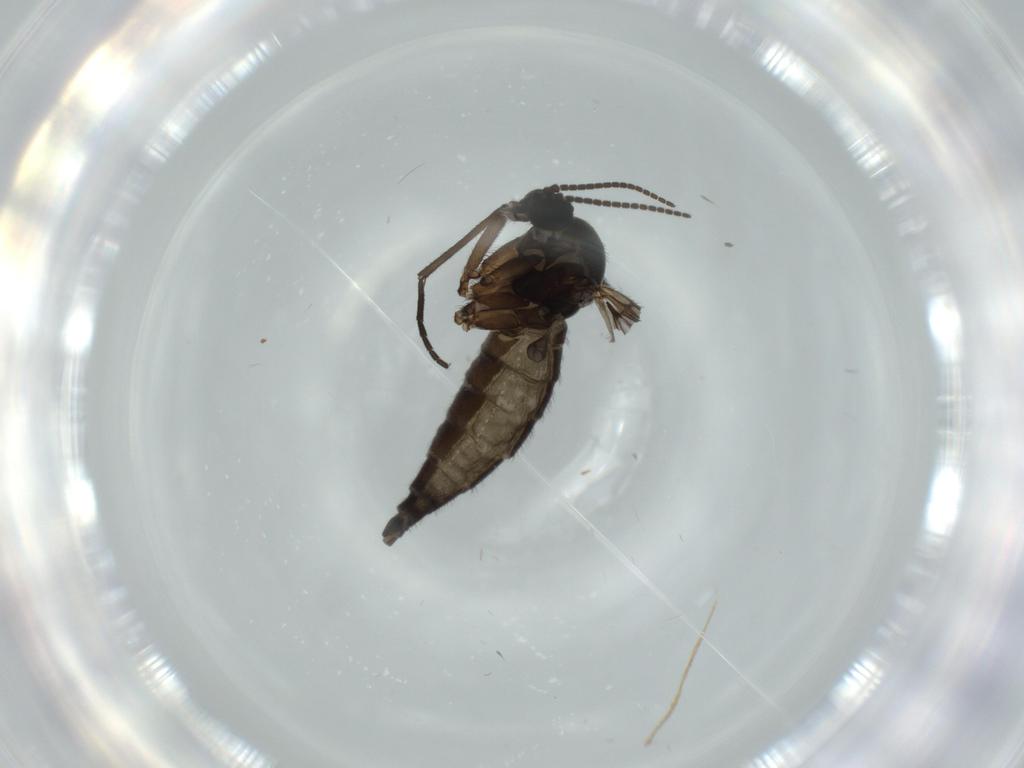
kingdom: Animalia
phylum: Arthropoda
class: Insecta
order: Diptera
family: Sciaridae
